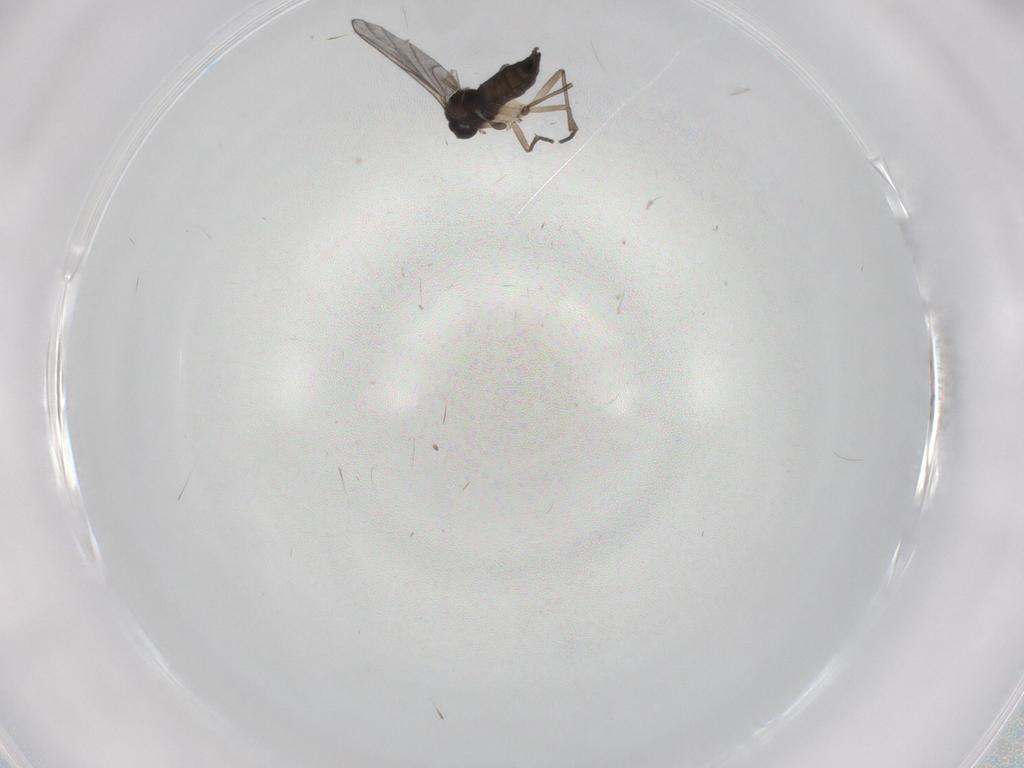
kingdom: Animalia
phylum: Arthropoda
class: Insecta
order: Diptera
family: Cecidomyiidae
